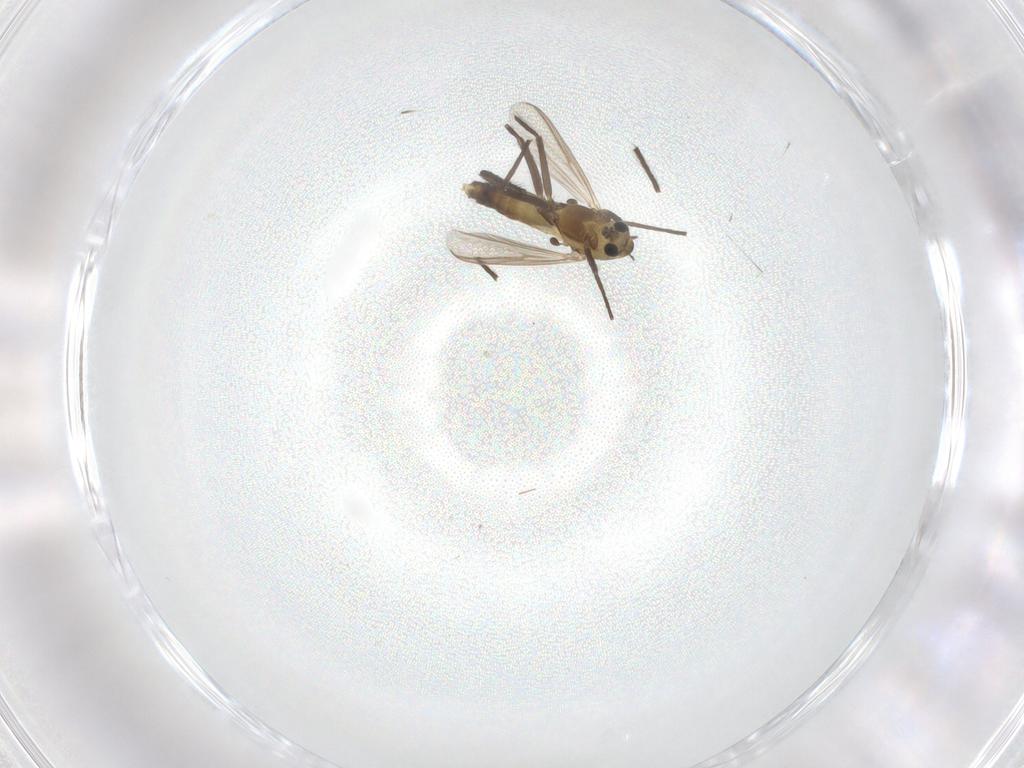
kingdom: Animalia
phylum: Arthropoda
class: Insecta
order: Diptera
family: Chironomidae
